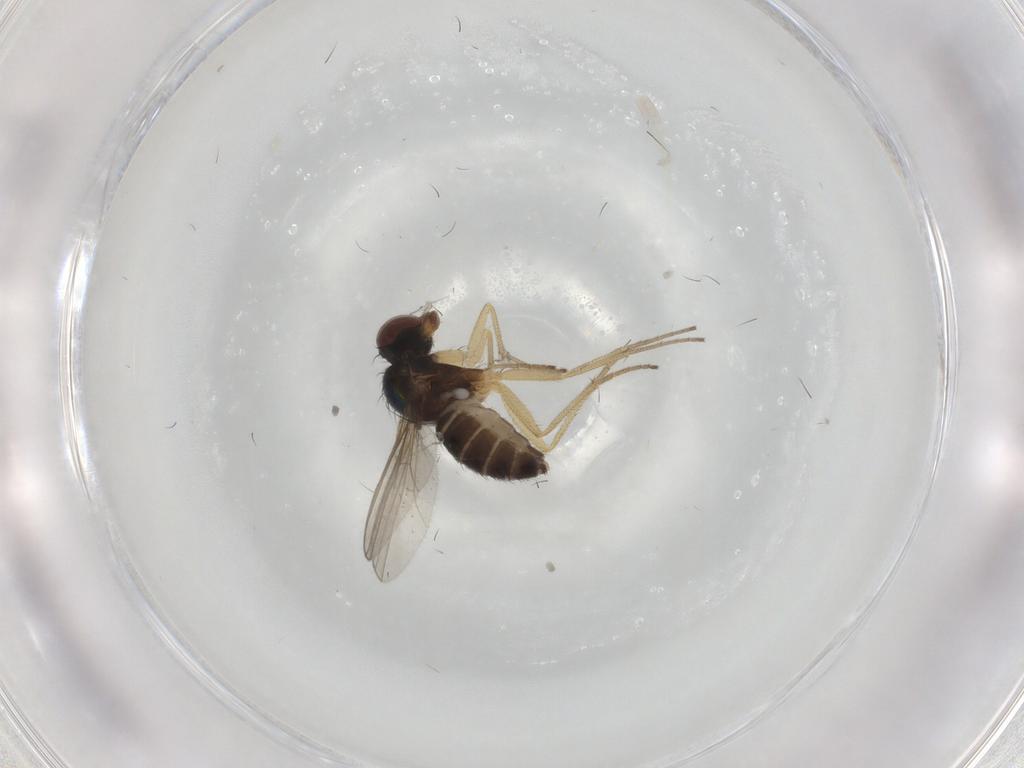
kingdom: Animalia
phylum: Arthropoda
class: Insecta
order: Diptera
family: Dolichopodidae
